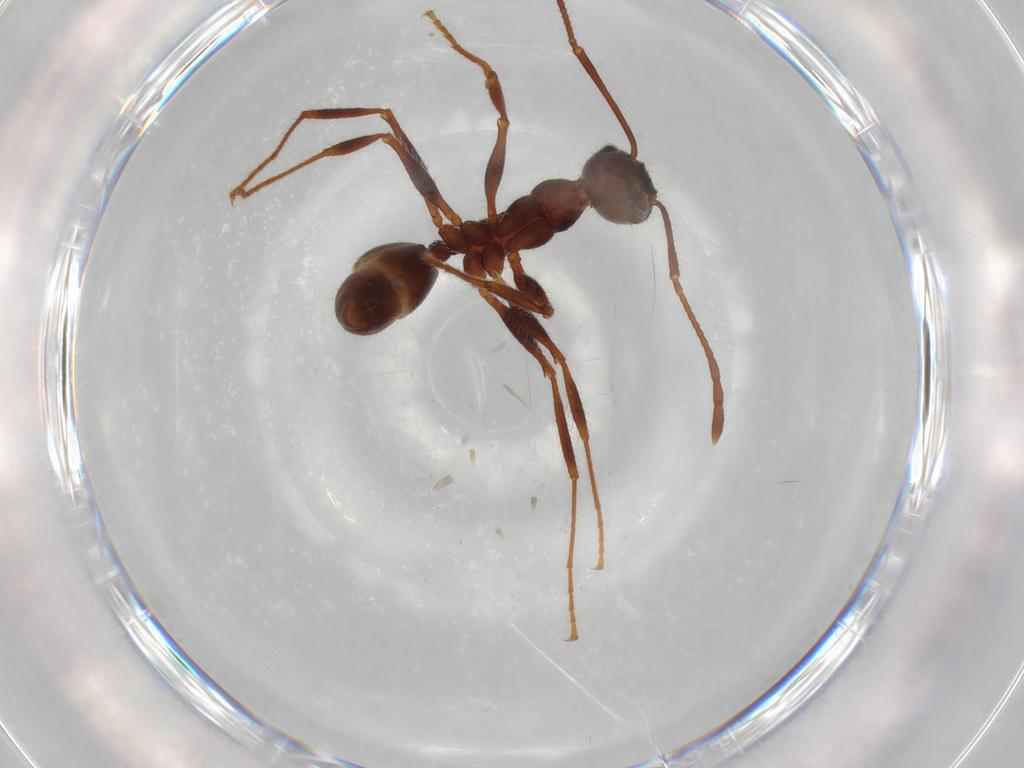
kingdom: Animalia
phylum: Arthropoda
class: Insecta
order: Hymenoptera
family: Formicidae
